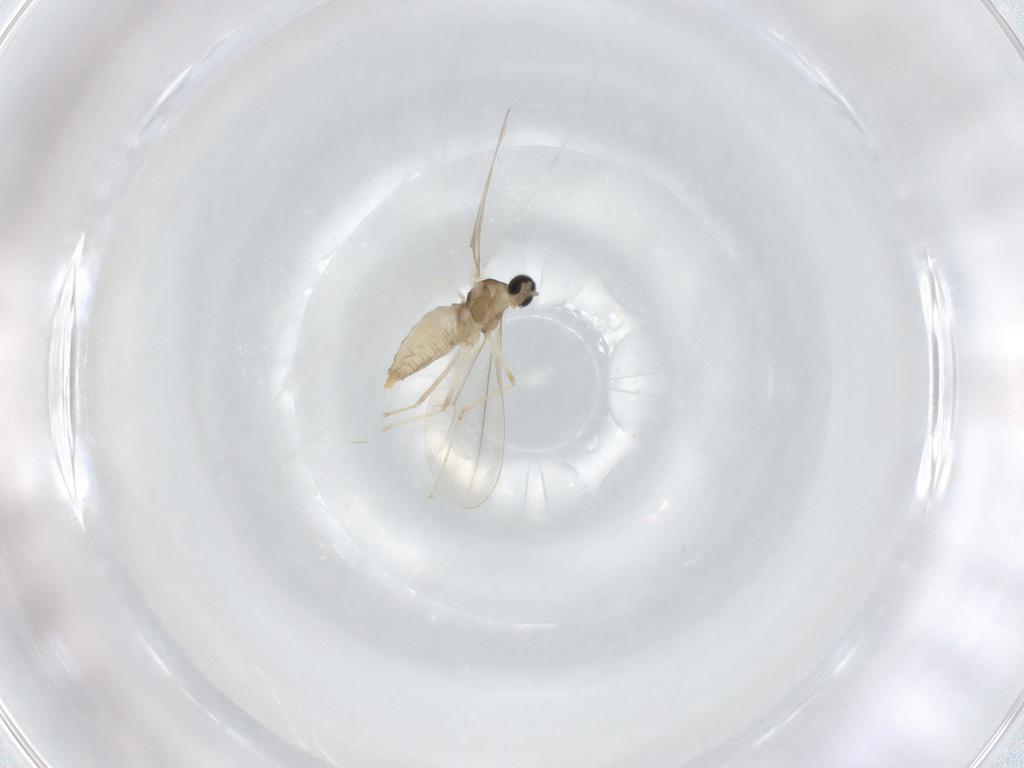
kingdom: Animalia
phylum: Arthropoda
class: Insecta
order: Diptera
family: Cecidomyiidae
